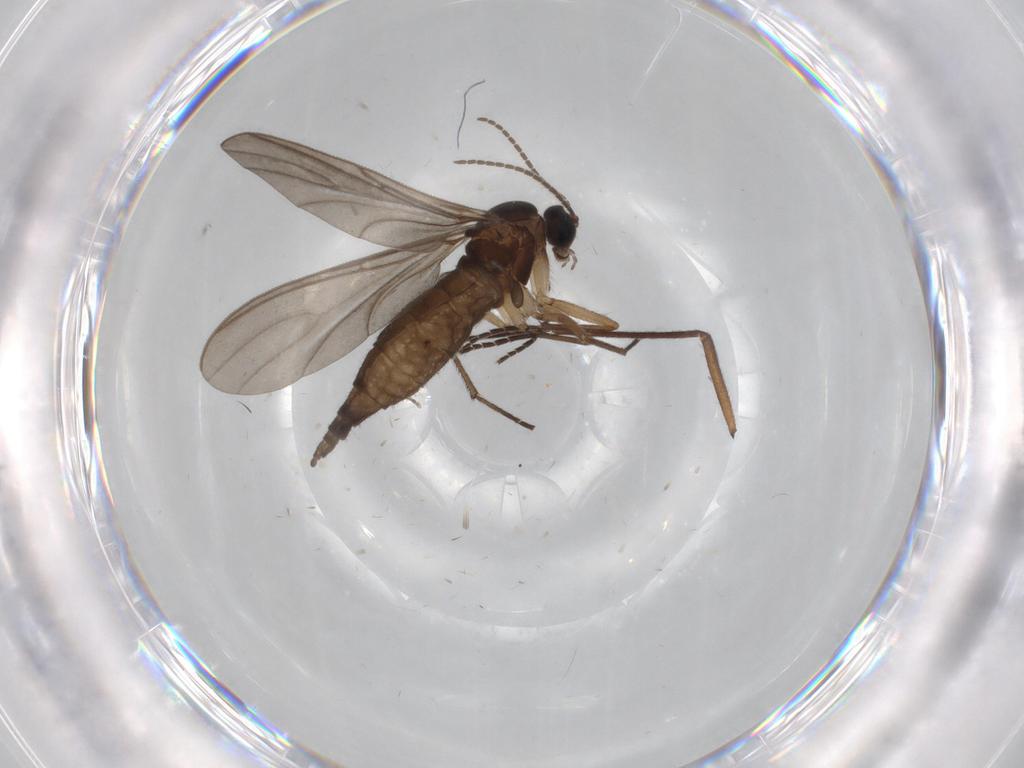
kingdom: Animalia
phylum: Arthropoda
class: Insecta
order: Diptera
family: Sciaridae
